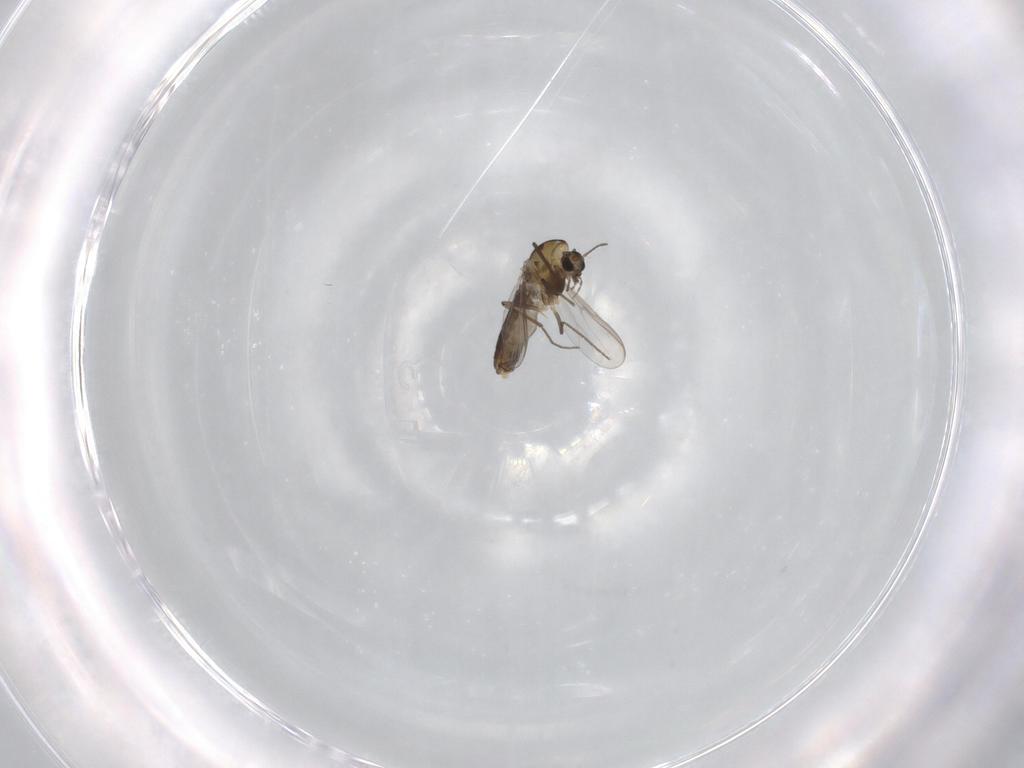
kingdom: Animalia
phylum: Arthropoda
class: Insecta
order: Diptera
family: Chironomidae
